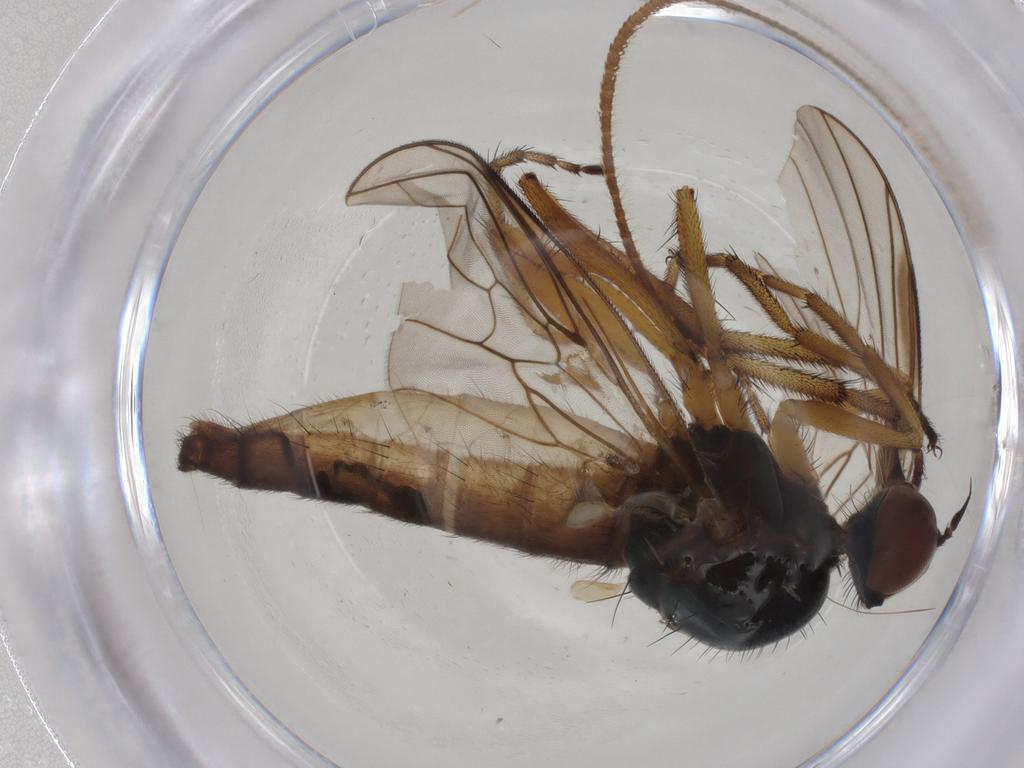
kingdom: Animalia
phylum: Arthropoda
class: Insecta
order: Diptera
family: Empididae
